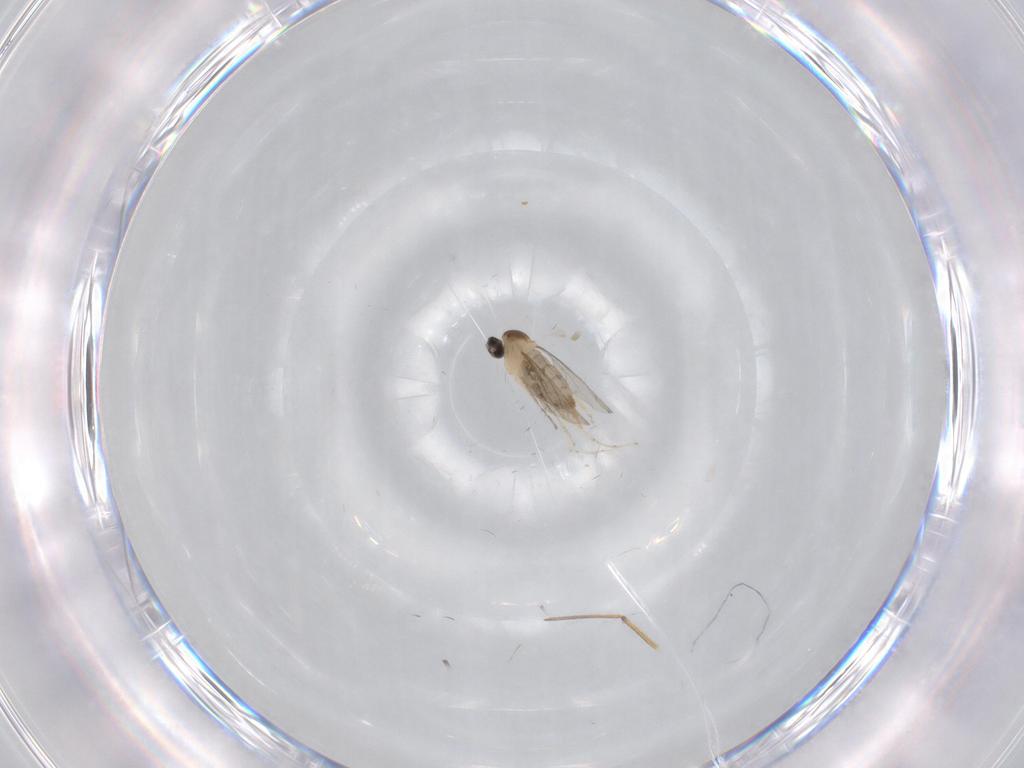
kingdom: Animalia
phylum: Arthropoda
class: Insecta
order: Diptera
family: Cecidomyiidae
